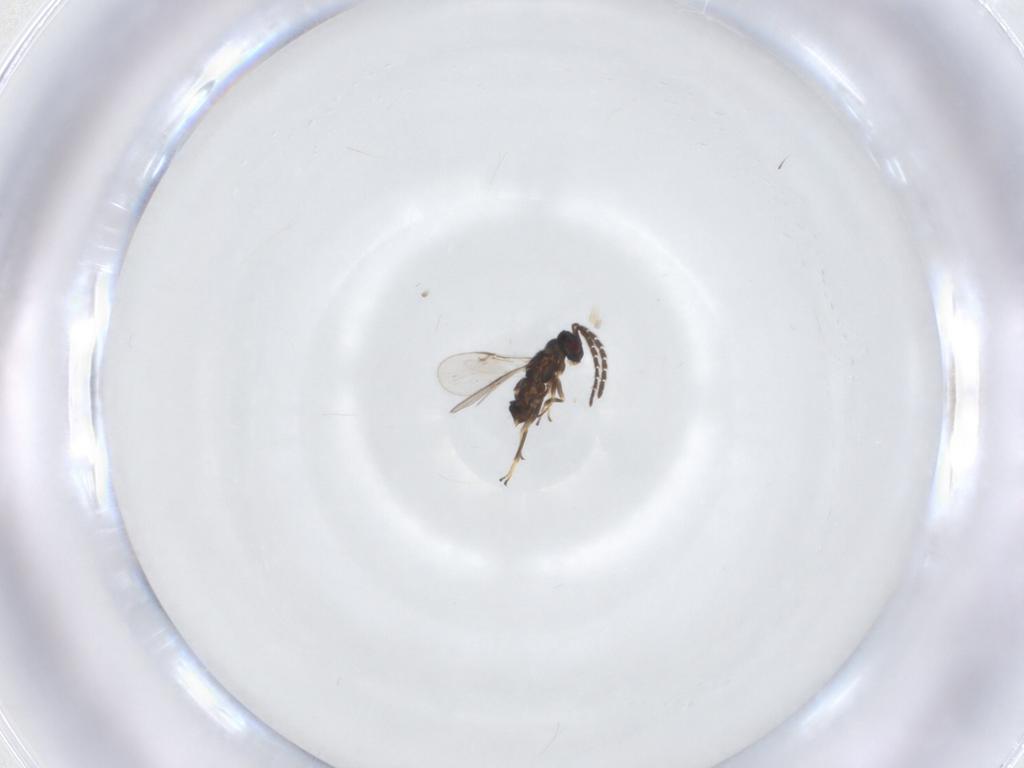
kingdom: Animalia
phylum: Arthropoda
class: Insecta
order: Hymenoptera
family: Encyrtidae
